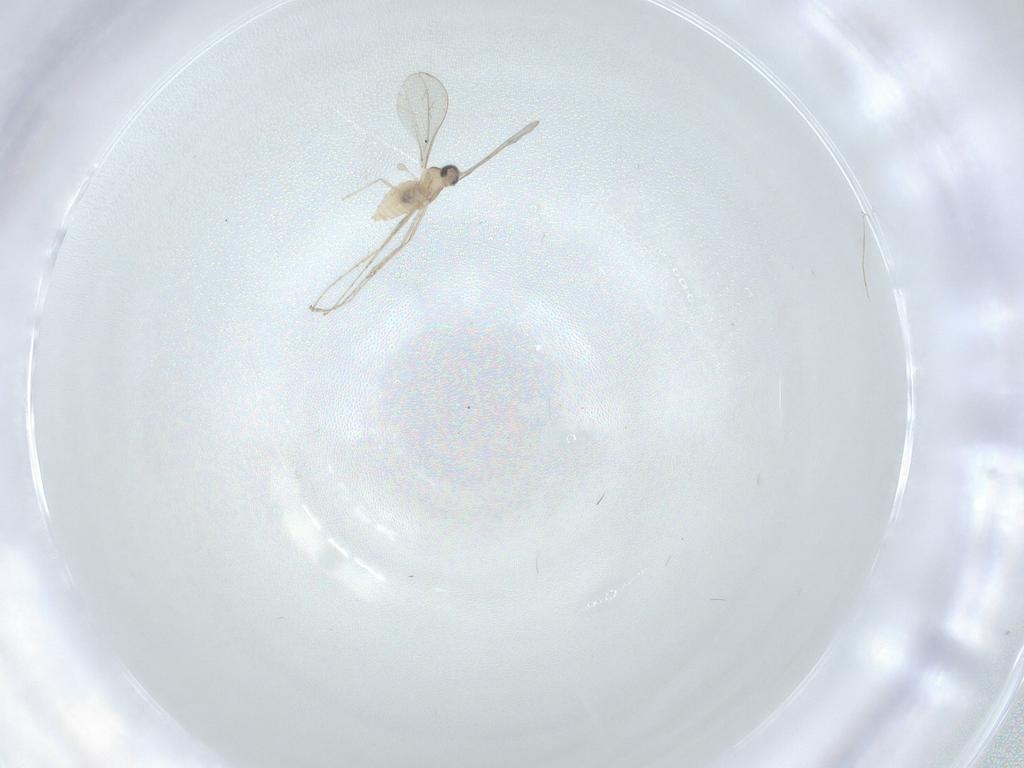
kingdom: Animalia
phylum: Arthropoda
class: Insecta
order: Diptera
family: Cecidomyiidae
